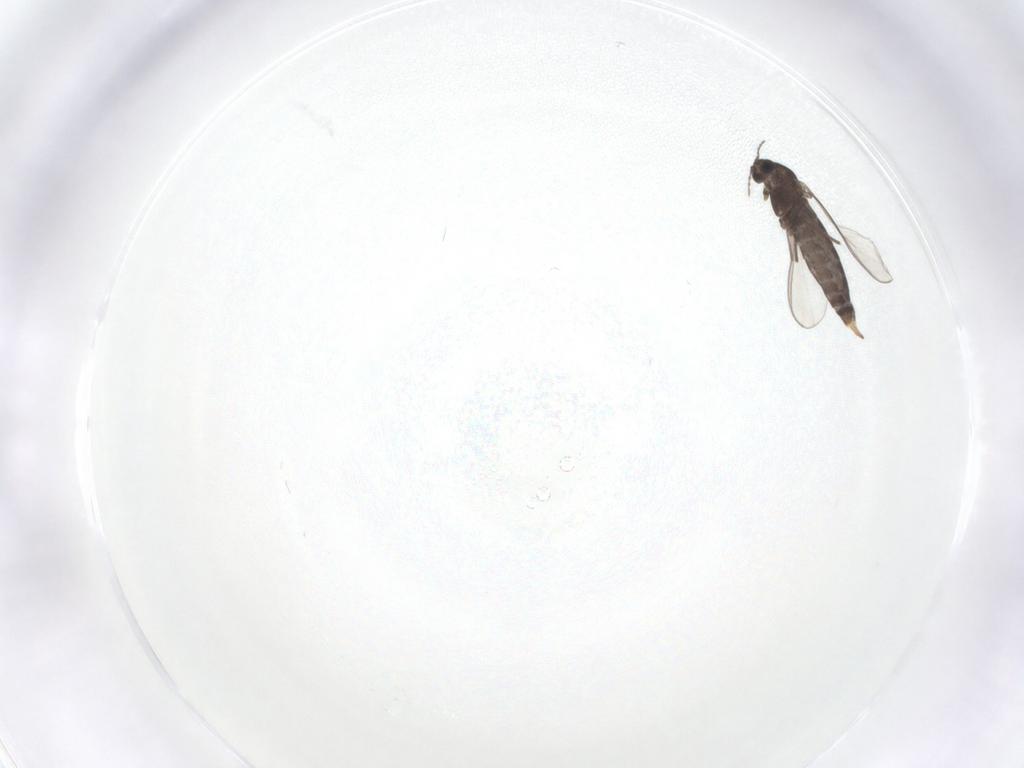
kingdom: Animalia
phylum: Arthropoda
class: Insecta
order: Diptera
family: Chironomidae
